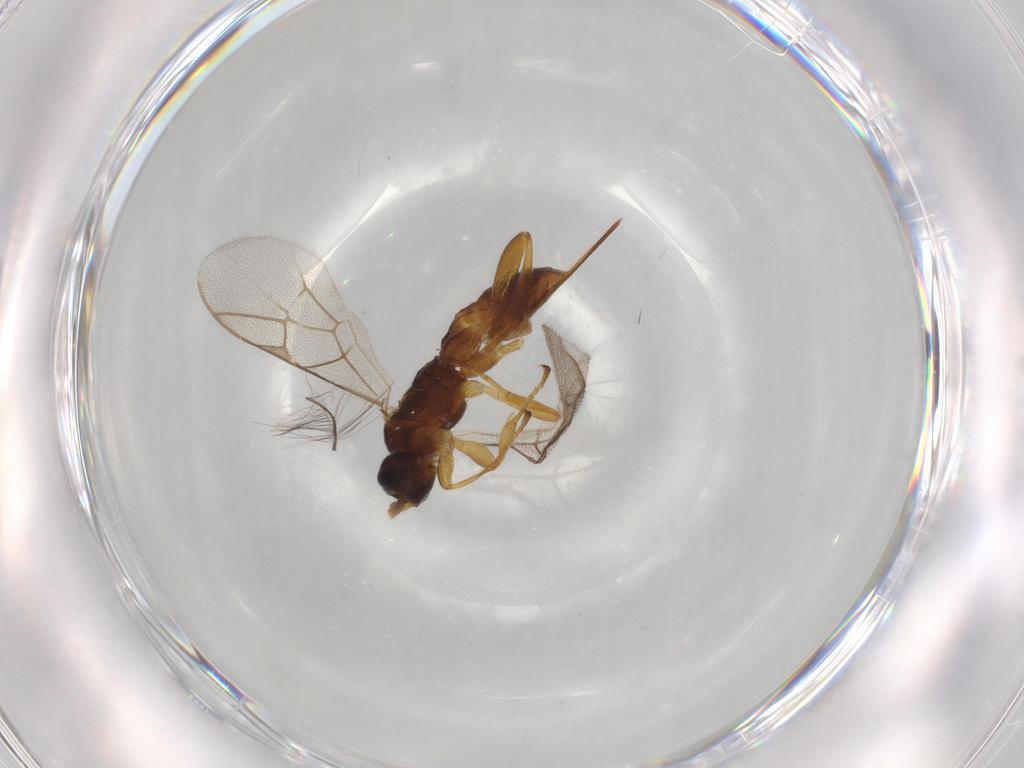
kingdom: Animalia
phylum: Arthropoda
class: Insecta
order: Hymenoptera
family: Ichneumonidae
